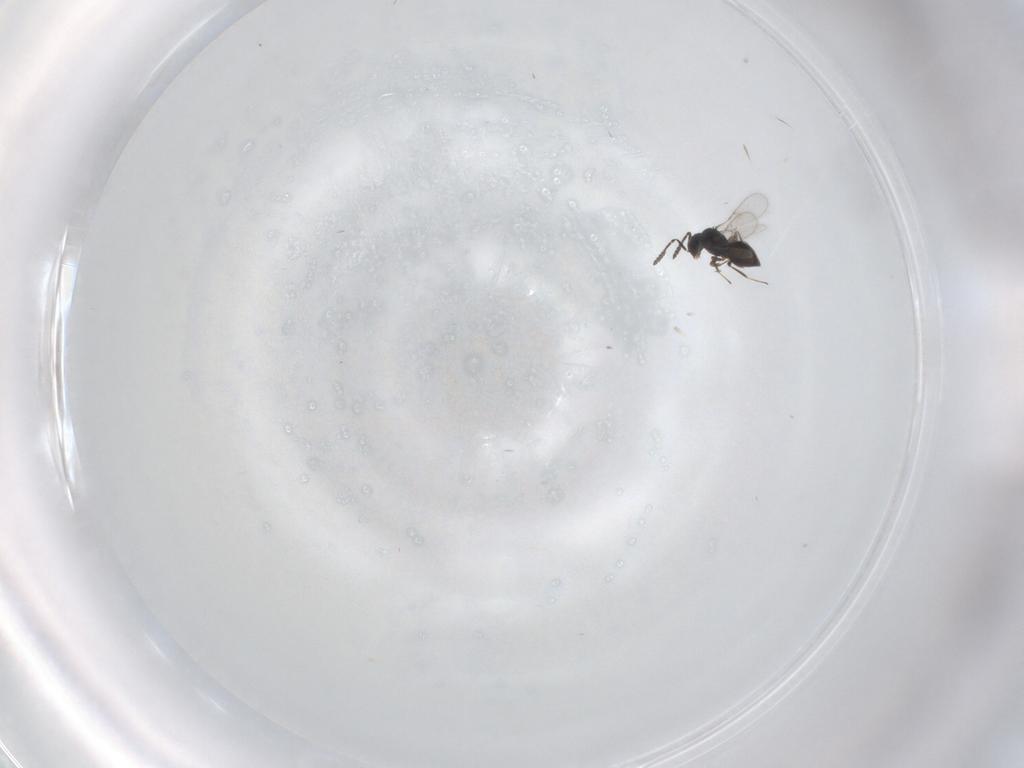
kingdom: Animalia
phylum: Arthropoda
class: Insecta
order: Hymenoptera
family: Scelionidae
